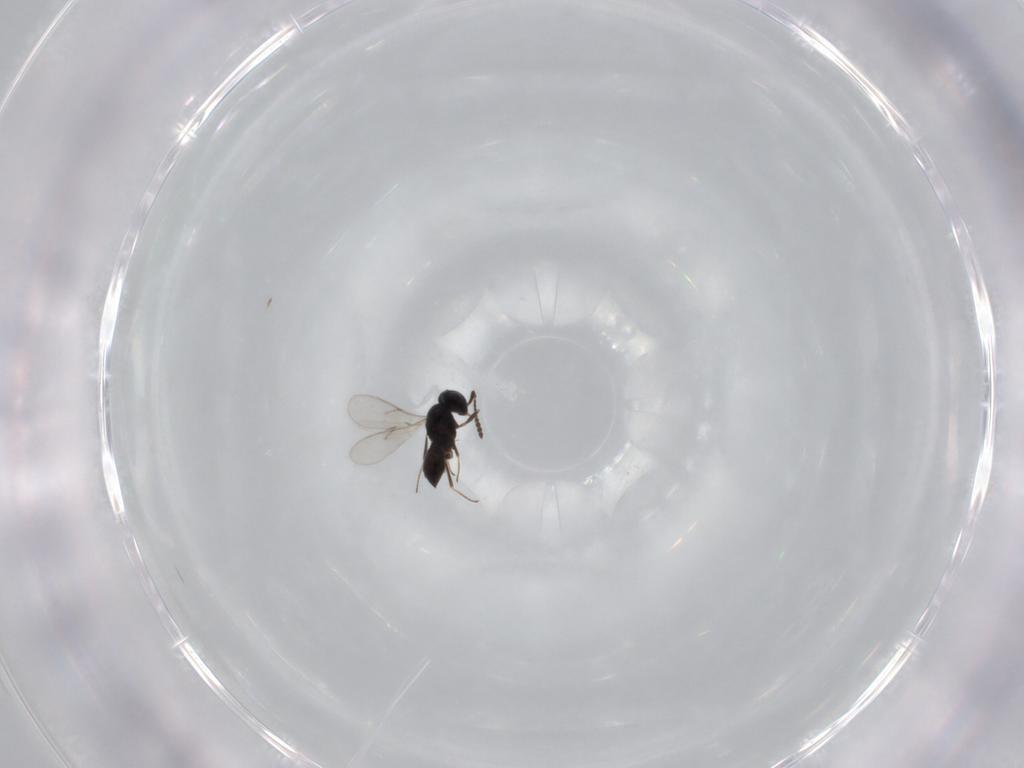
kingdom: Animalia
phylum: Arthropoda
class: Insecta
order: Hymenoptera
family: Scelionidae
